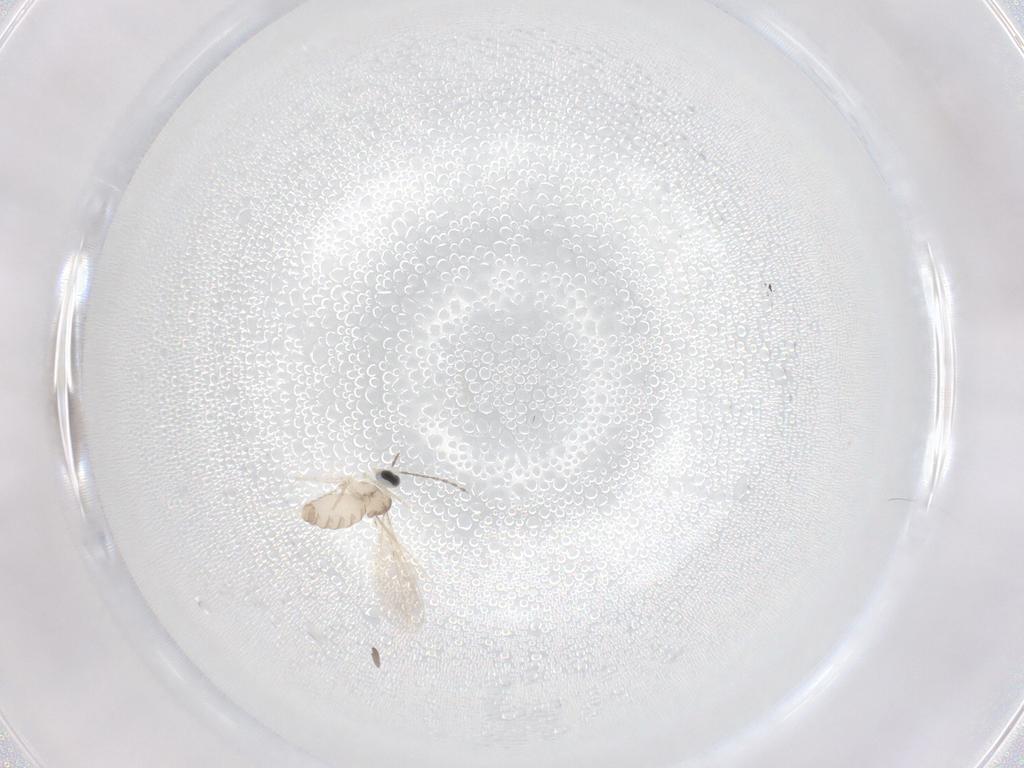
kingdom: Animalia
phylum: Arthropoda
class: Insecta
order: Diptera
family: Cecidomyiidae
